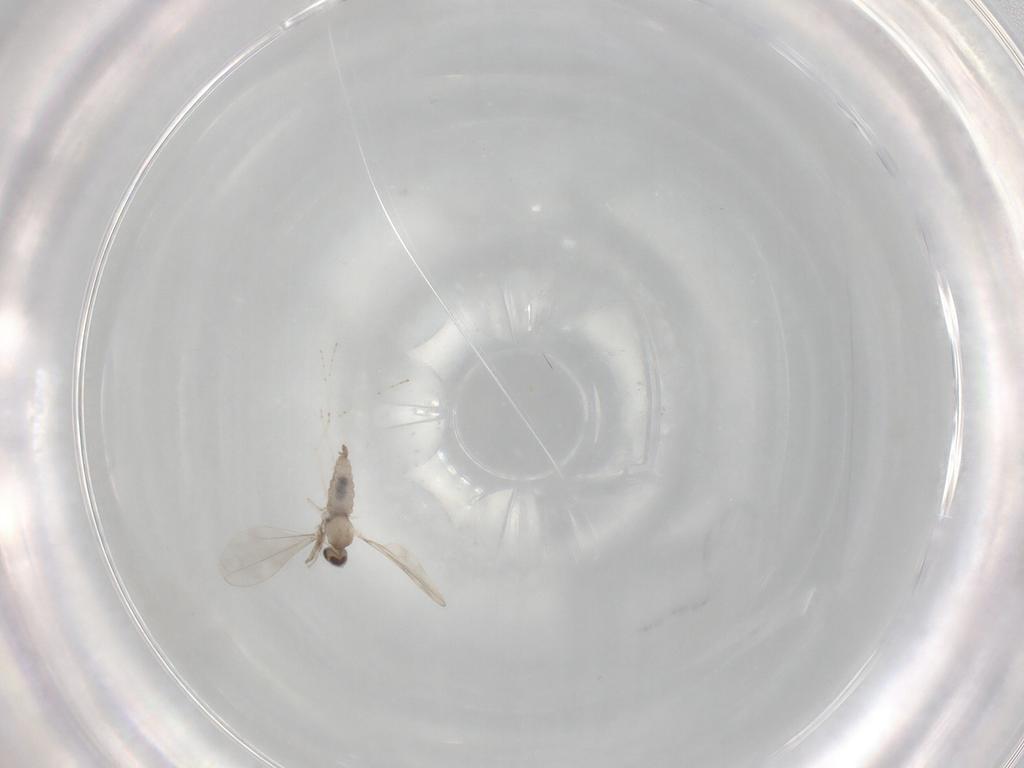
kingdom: Animalia
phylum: Arthropoda
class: Insecta
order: Diptera
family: Cecidomyiidae
